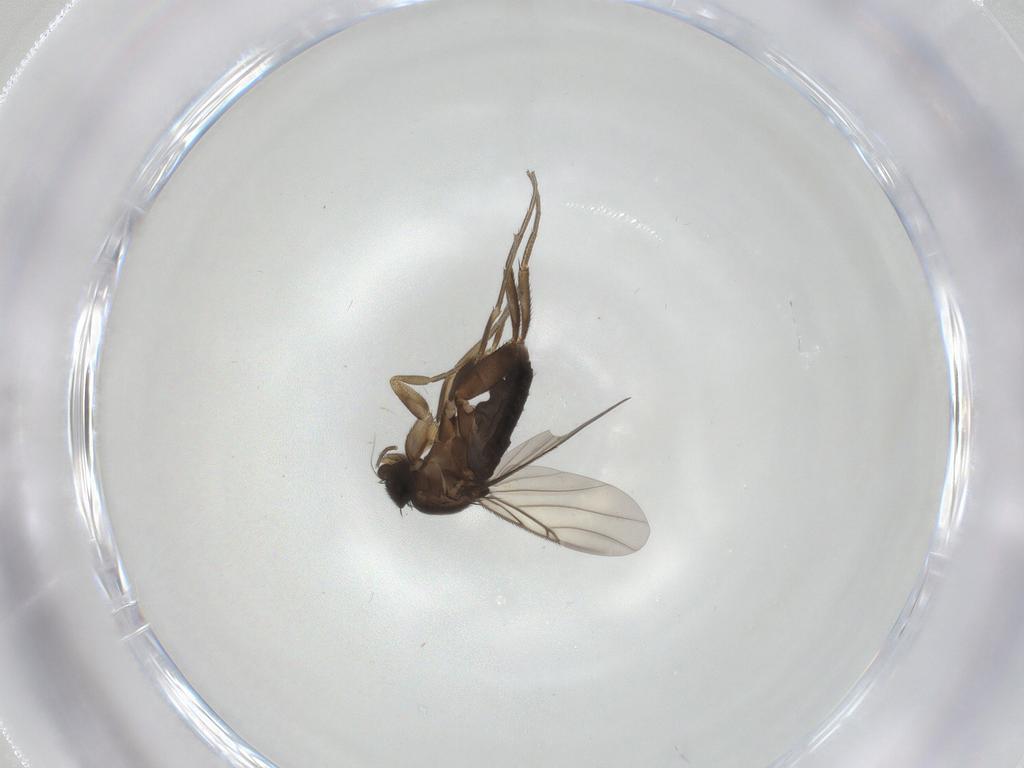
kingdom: Animalia
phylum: Arthropoda
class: Insecta
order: Diptera
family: Phoridae
